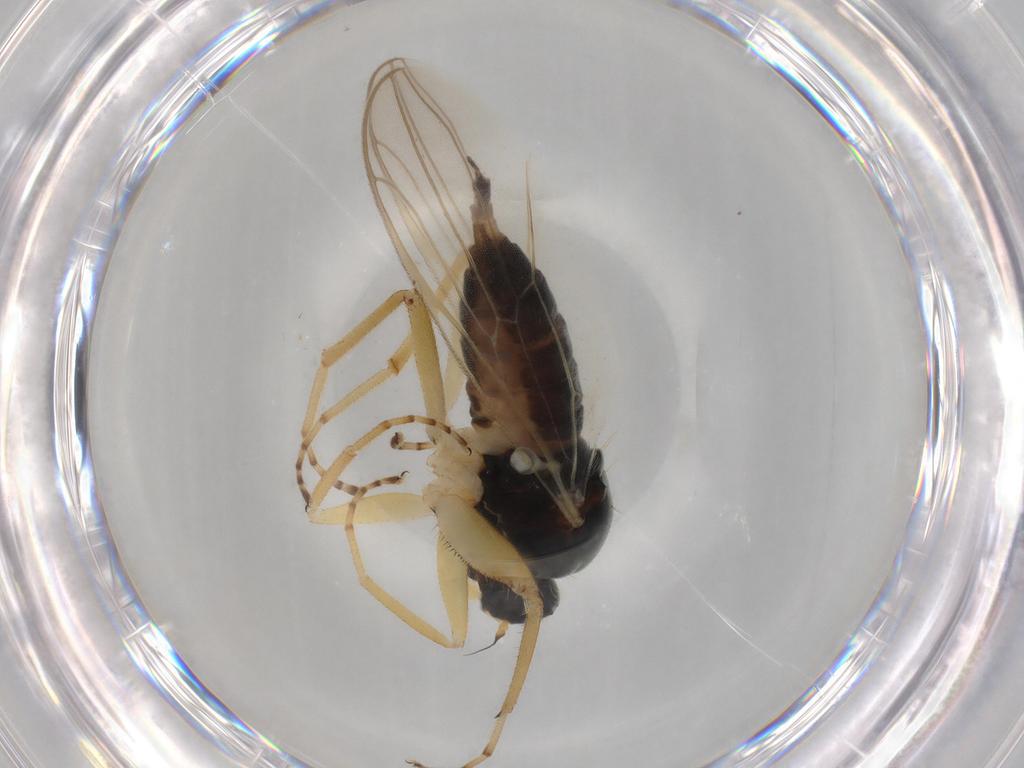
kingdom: Animalia
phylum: Arthropoda
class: Insecta
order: Diptera
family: Hybotidae
